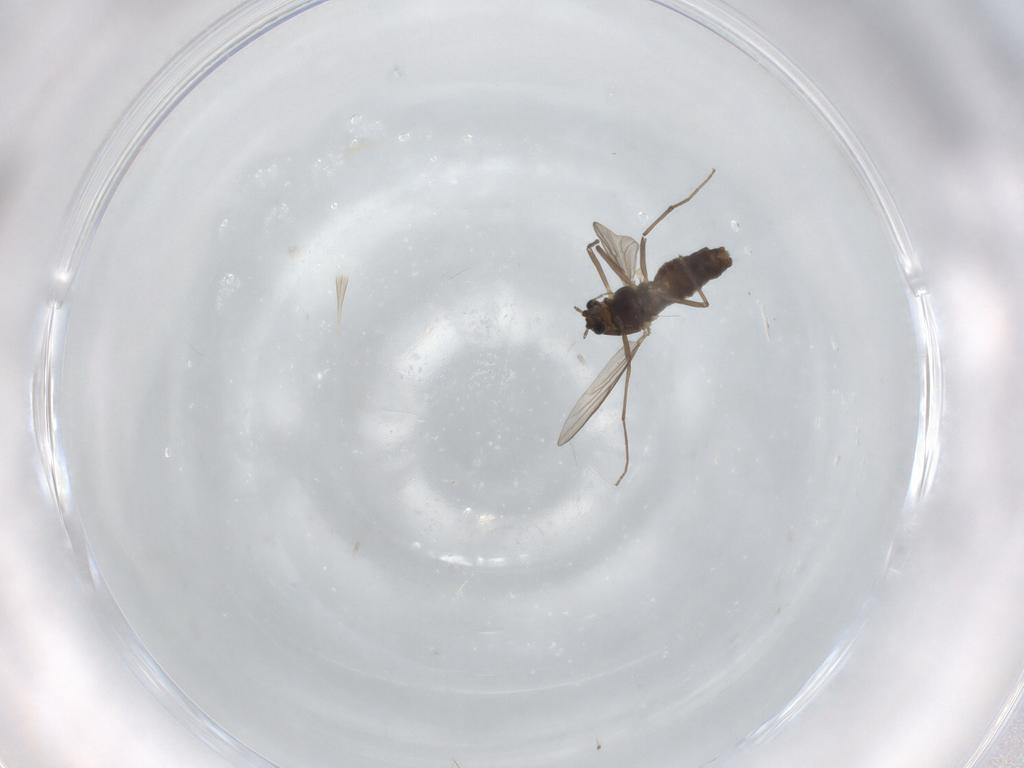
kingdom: Animalia
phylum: Arthropoda
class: Insecta
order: Diptera
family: Chironomidae
